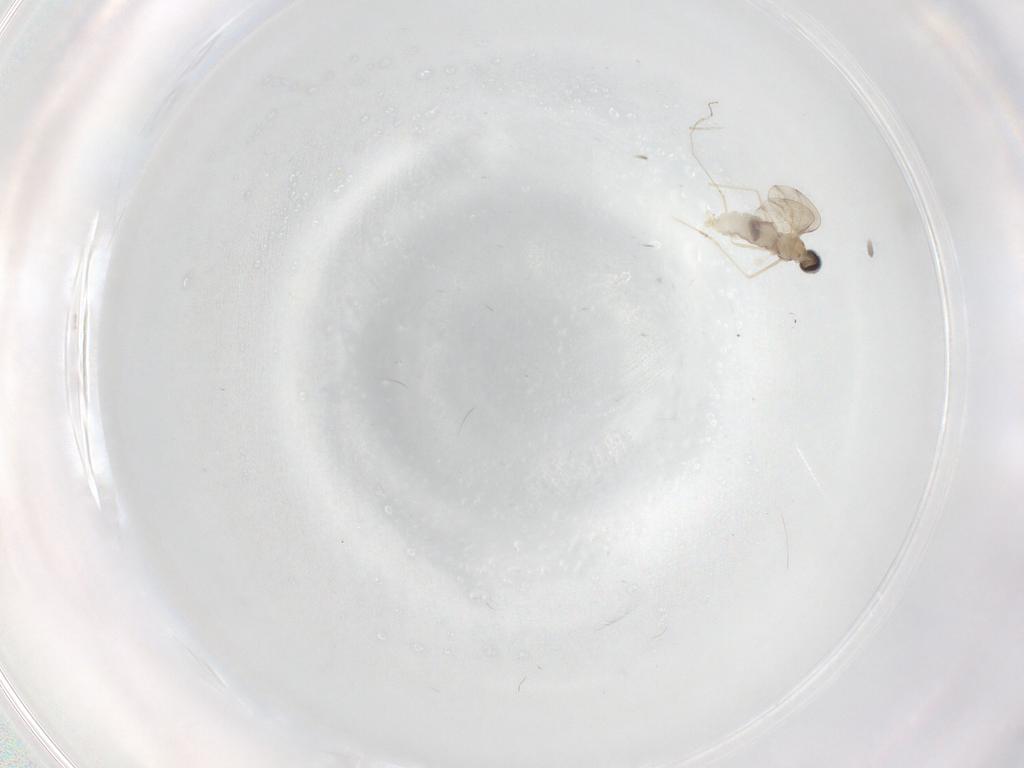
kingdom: Animalia
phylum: Arthropoda
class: Insecta
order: Diptera
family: Cecidomyiidae
